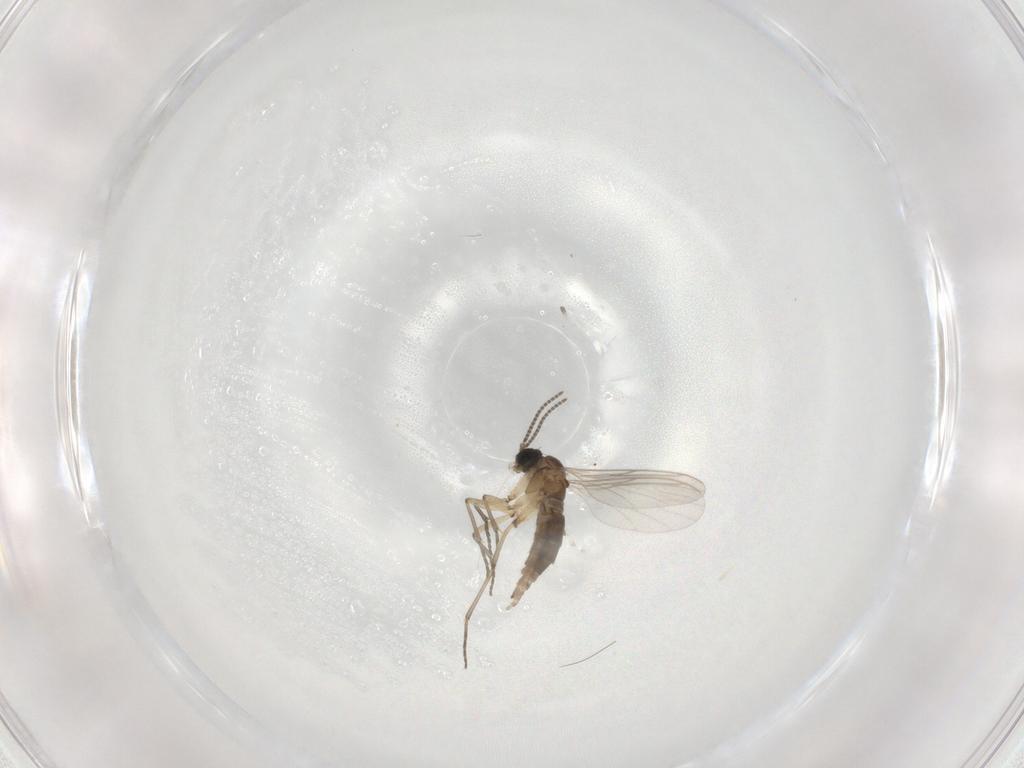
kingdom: Animalia
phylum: Arthropoda
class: Insecta
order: Diptera
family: Sciaridae
